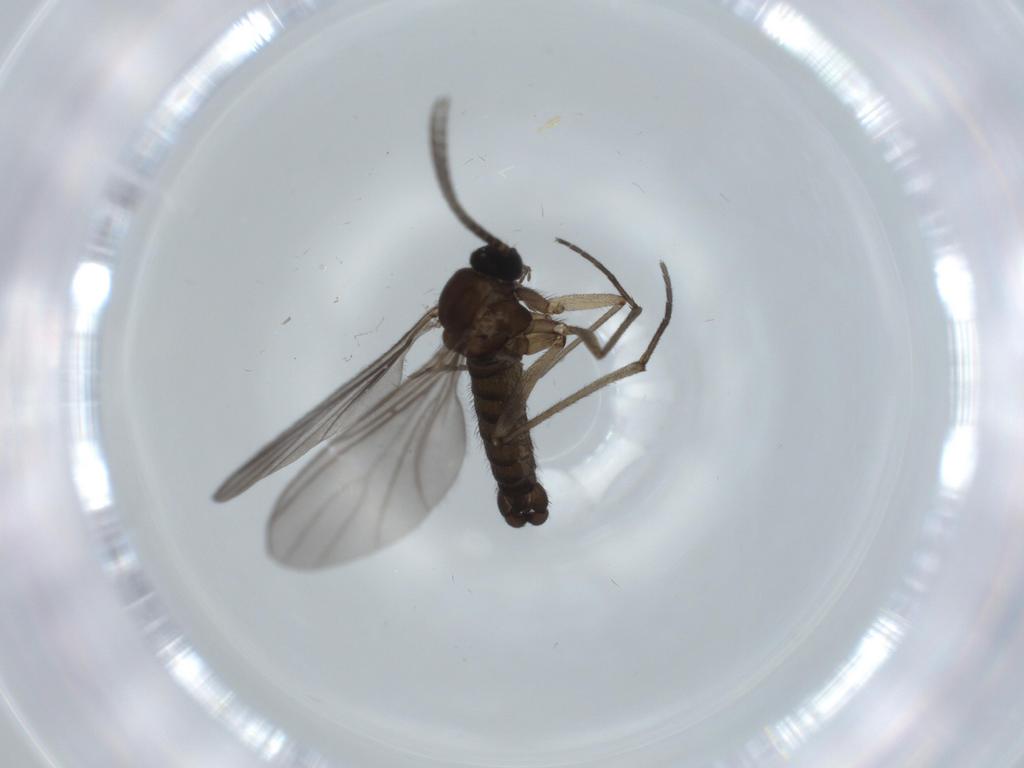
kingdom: Animalia
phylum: Arthropoda
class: Insecta
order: Diptera
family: Sciaridae
